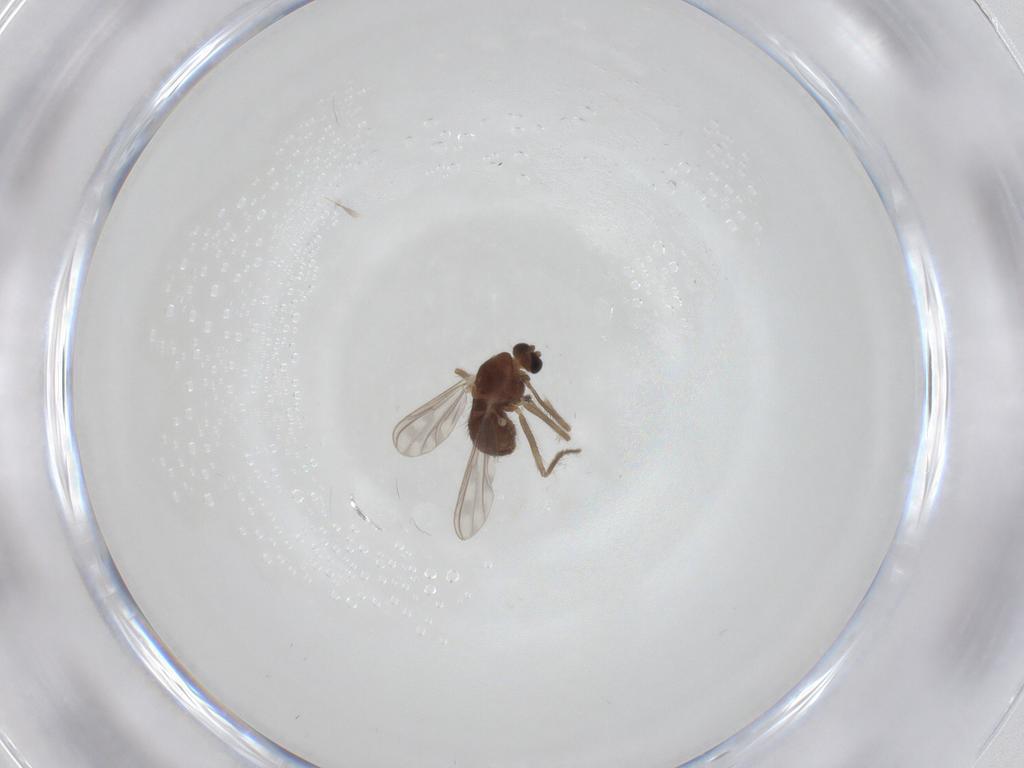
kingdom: Animalia
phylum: Arthropoda
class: Insecta
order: Diptera
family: Chironomidae
